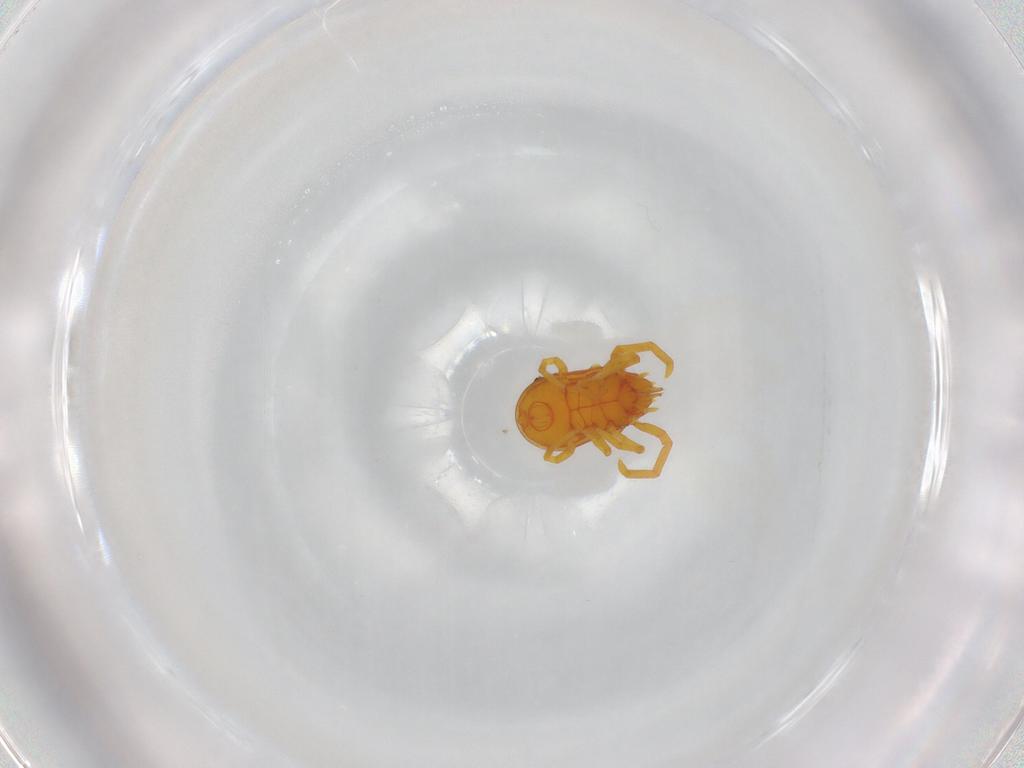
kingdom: Animalia
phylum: Arthropoda
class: Arachnida
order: Trombidiformes
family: Labidostommidae
